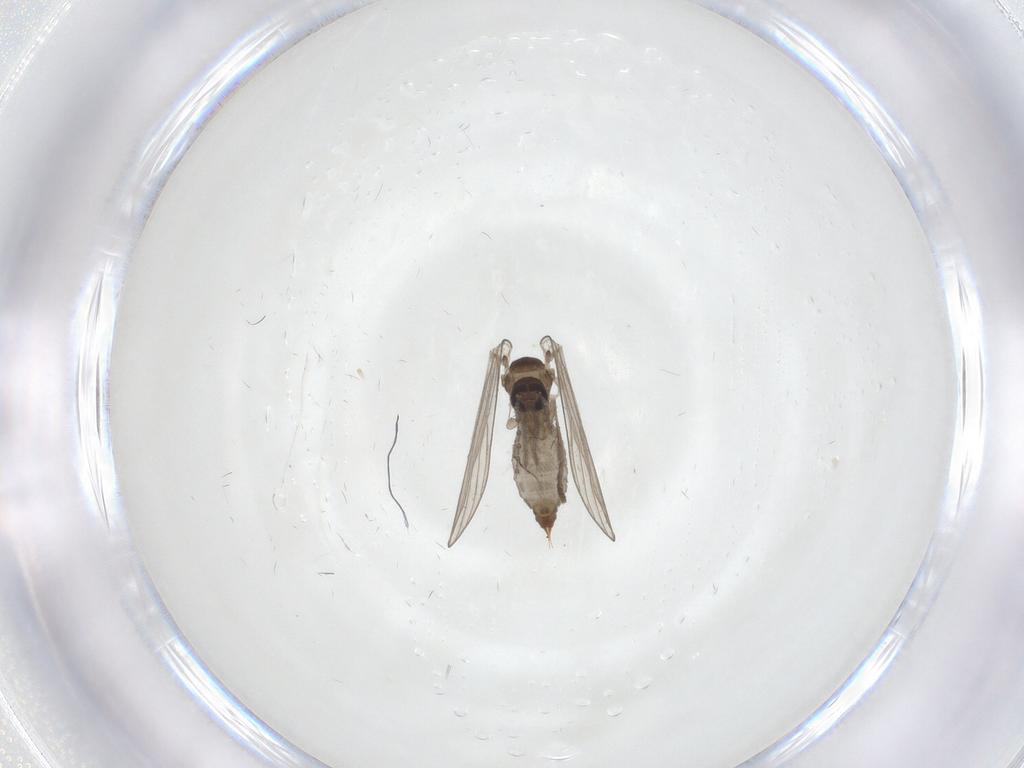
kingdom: Animalia
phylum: Arthropoda
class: Insecta
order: Diptera
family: Psychodidae
